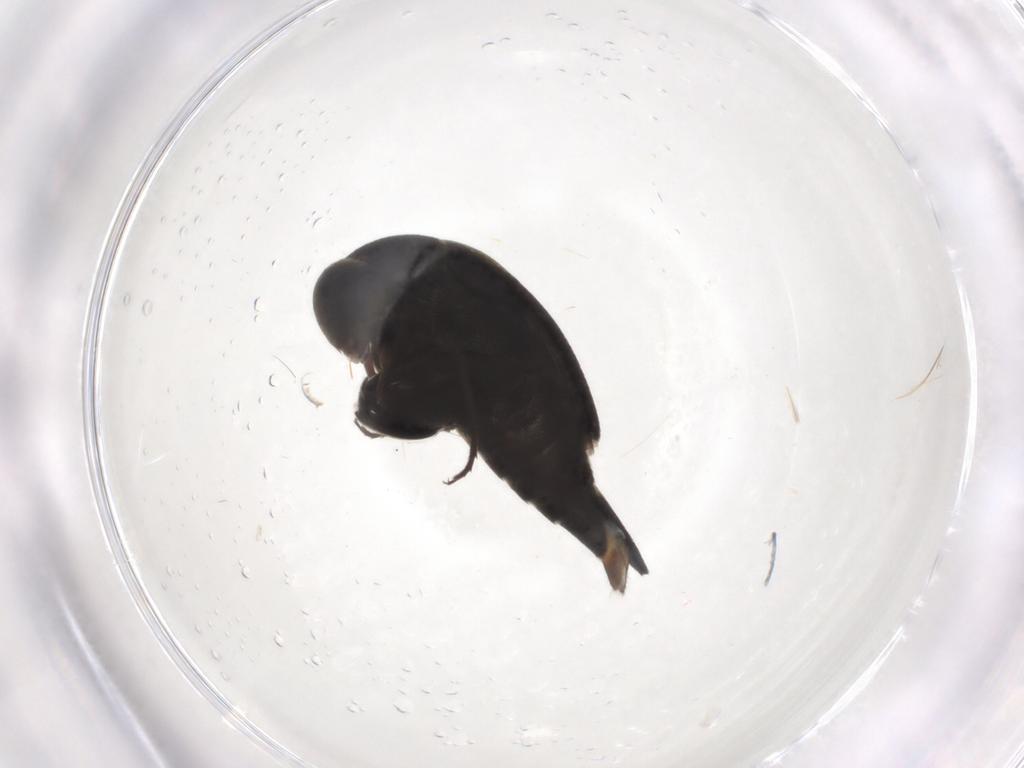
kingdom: Animalia
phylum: Arthropoda
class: Insecta
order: Coleoptera
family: Mordellidae
